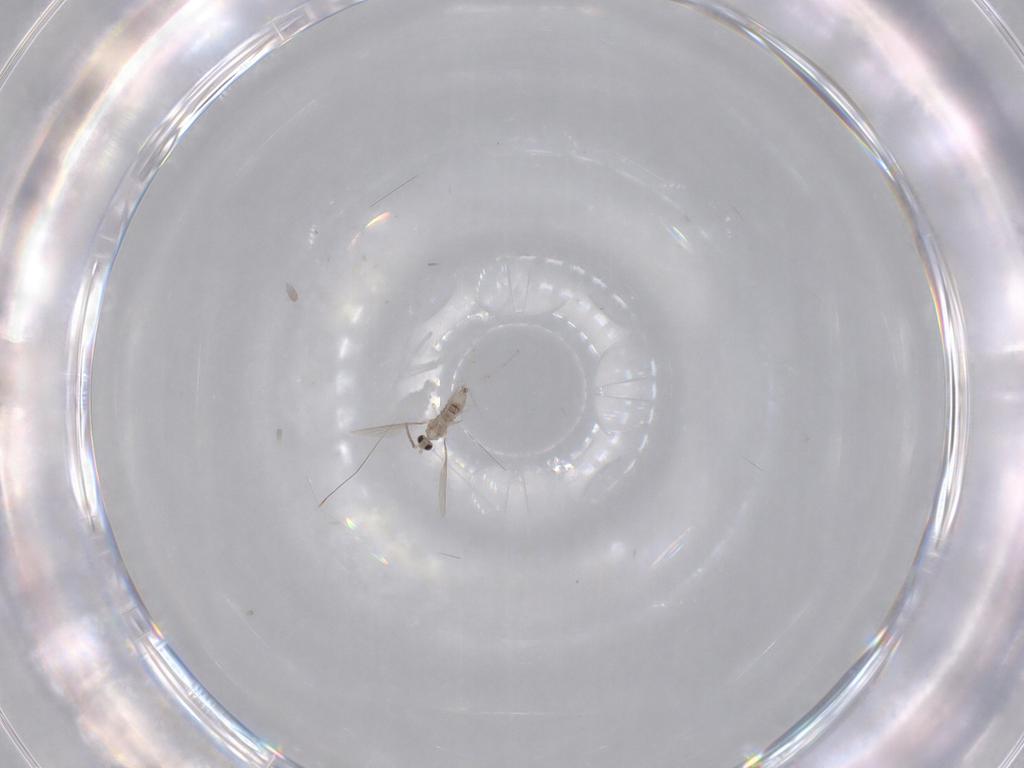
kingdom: Animalia
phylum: Arthropoda
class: Insecta
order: Diptera
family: Cecidomyiidae
